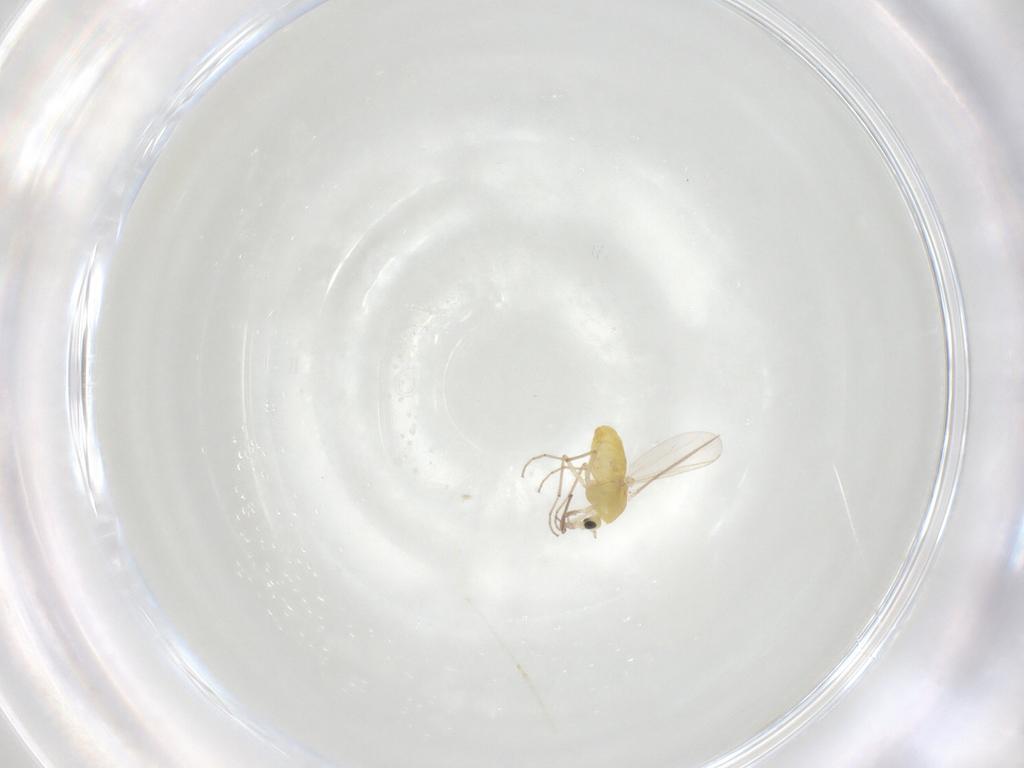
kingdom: Animalia
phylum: Arthropoda
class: Insecta
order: Diptera
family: Chironomidae
